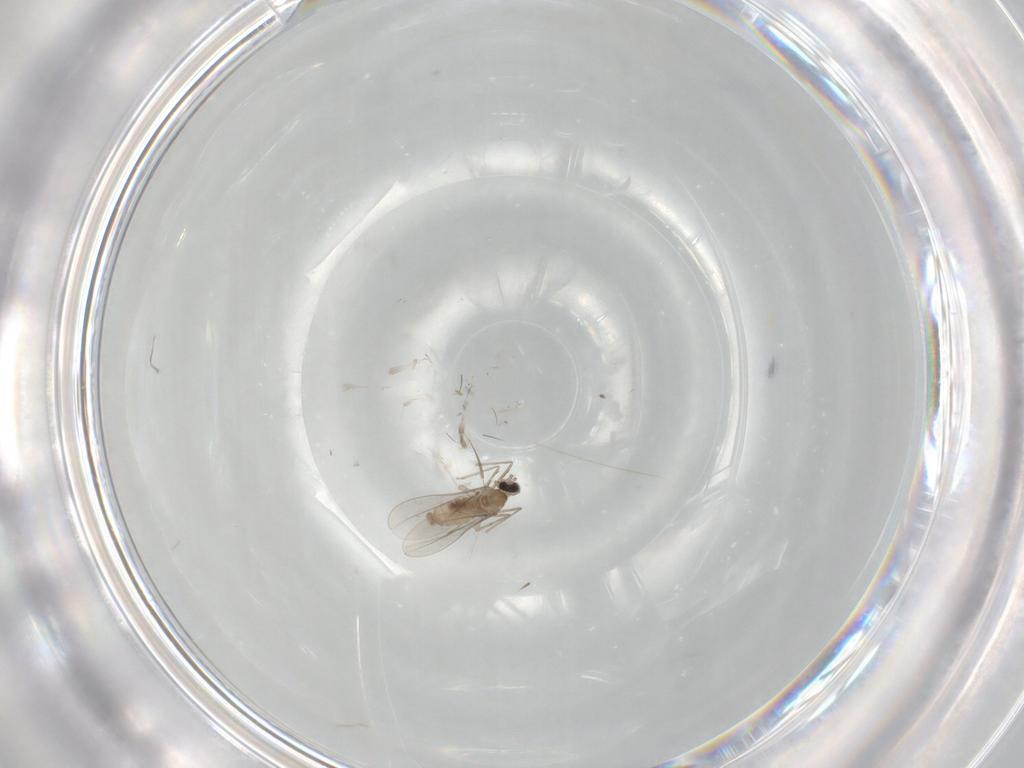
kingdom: Animalia
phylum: Arthropoda
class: Insecta
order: Diptera
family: Cecidomyiidae
